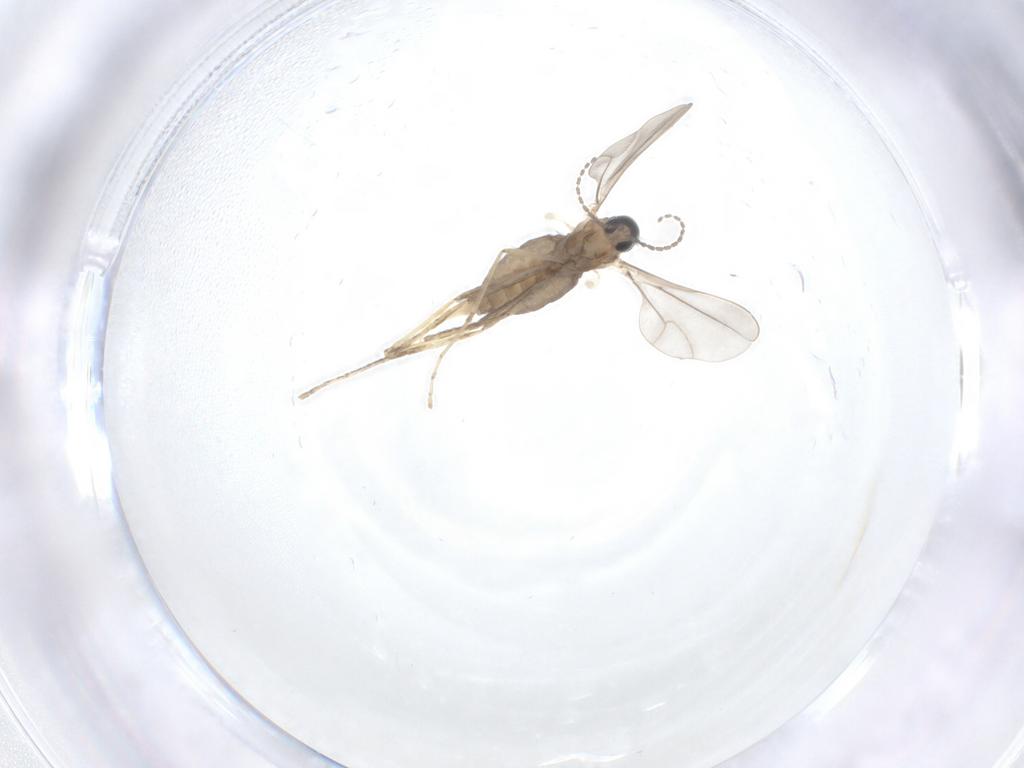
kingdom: Animalia
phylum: Arthropoda
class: Insecta
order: Diptera
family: Cecidomyiidae
